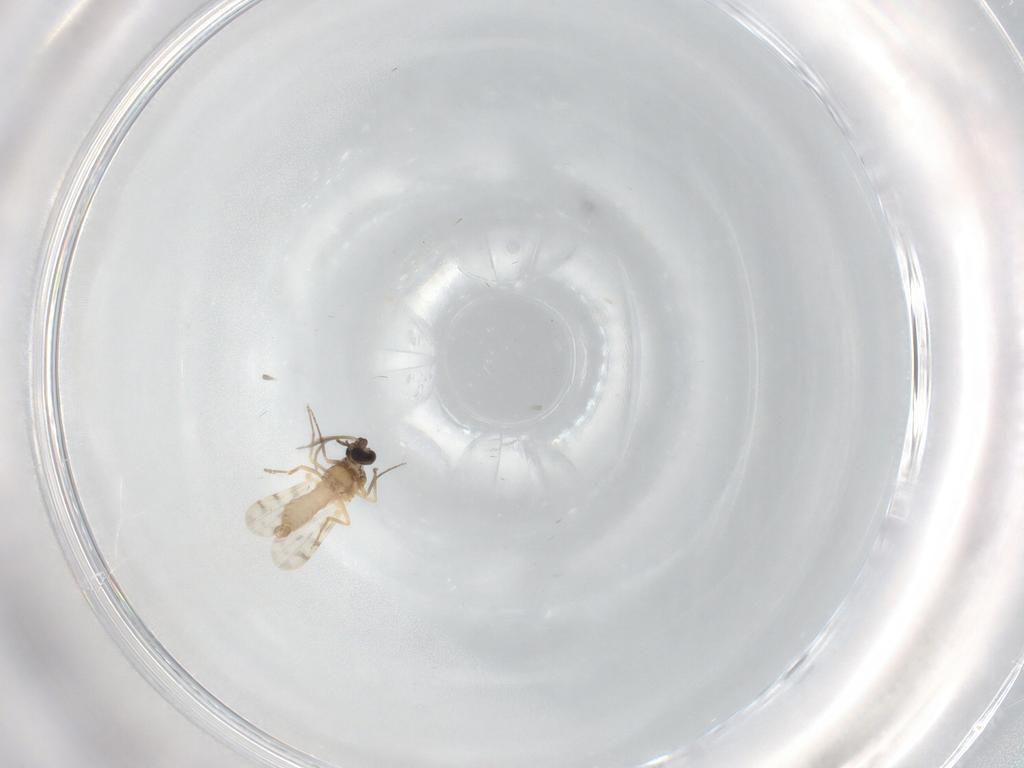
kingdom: Animalia
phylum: Arthropoda
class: Insecta
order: Diptera
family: Ceratopogonidae
